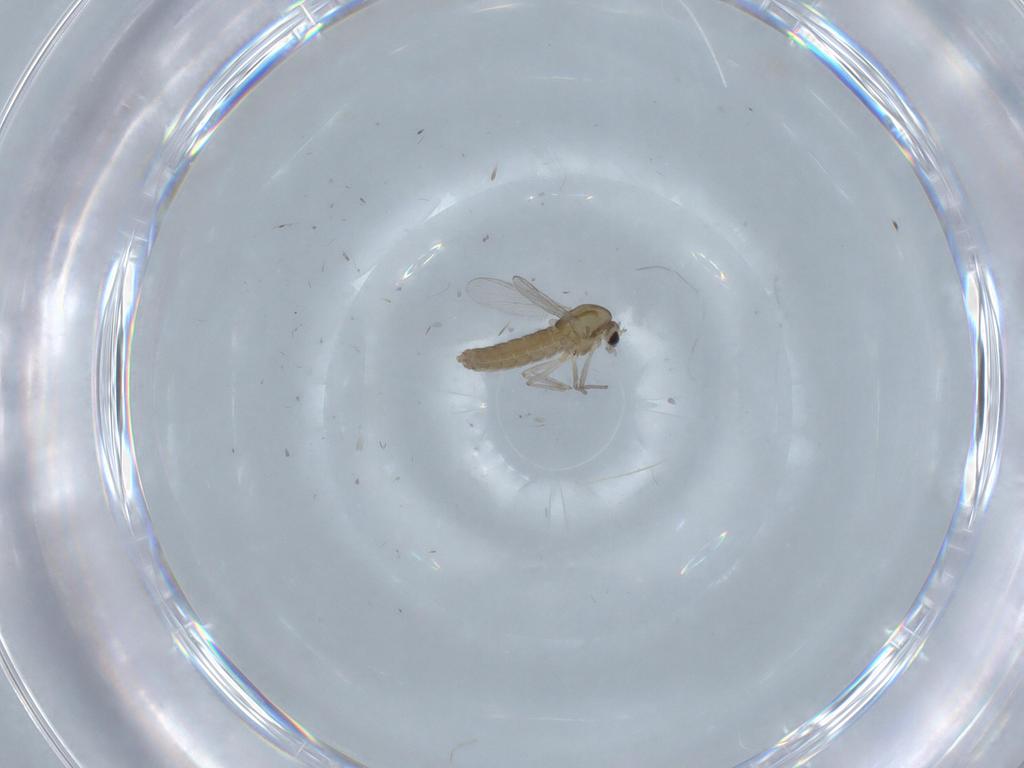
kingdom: Animalia
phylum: Arthropoda
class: Insecta
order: Diptera
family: Chironomidae
